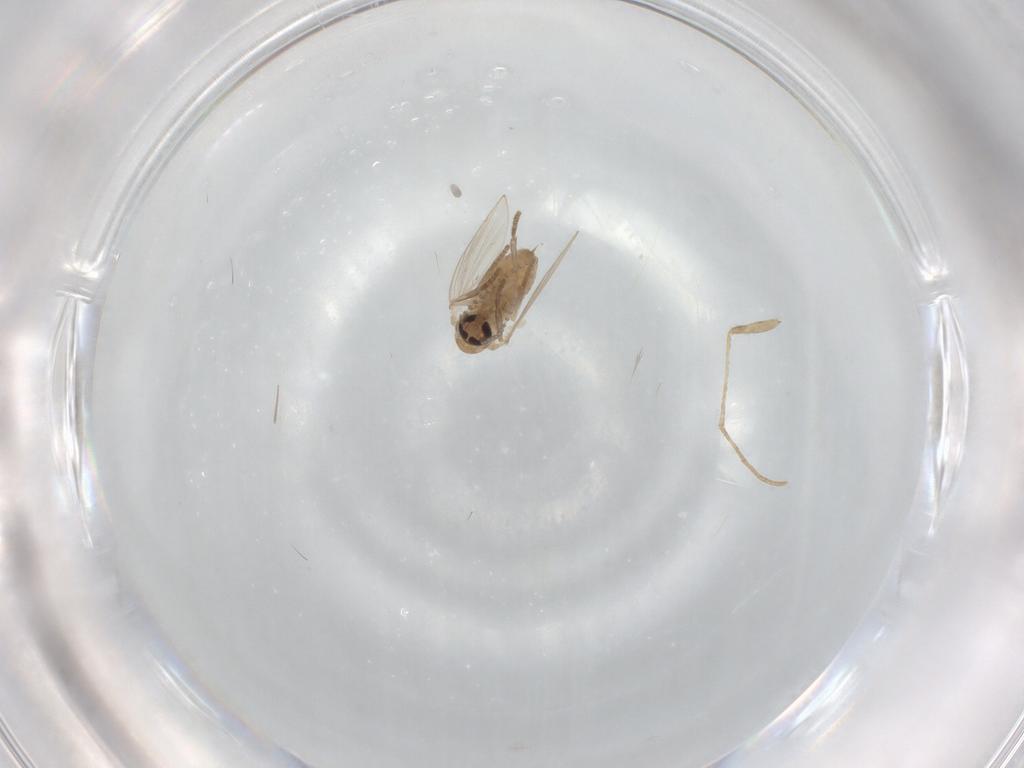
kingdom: Animalia
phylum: Arthropoda
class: Insecta
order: Diptera
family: Psychodidae
